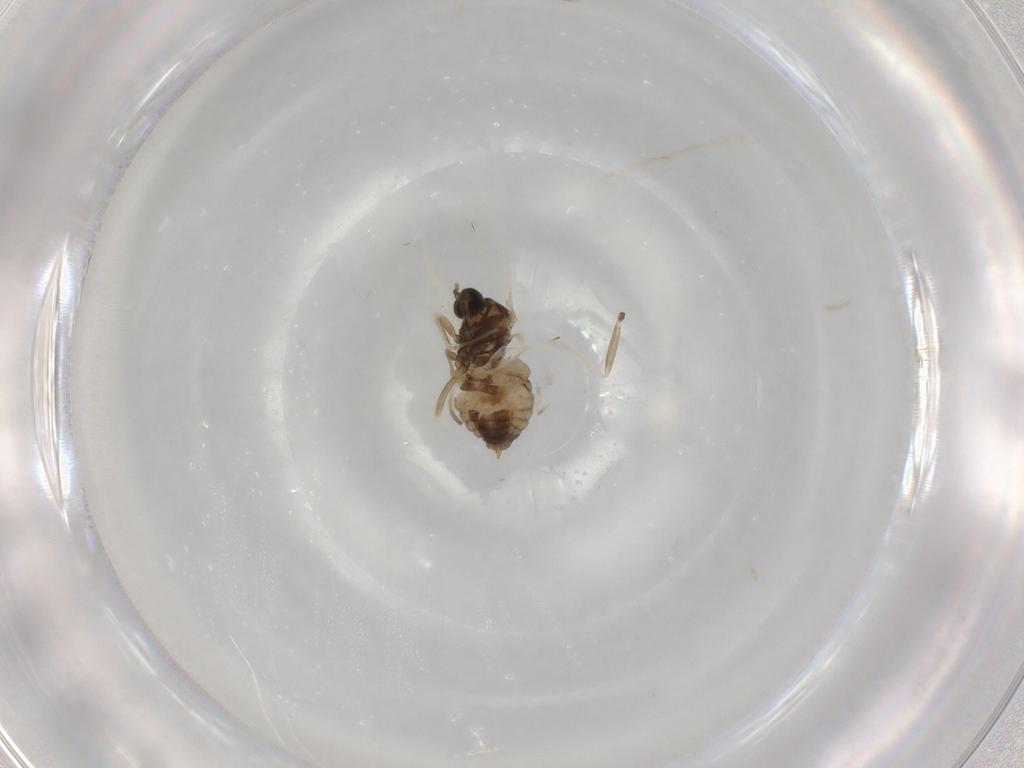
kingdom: Animalia
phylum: Arthropoda
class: Insecta
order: Diptera
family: Cecidomyiidae
